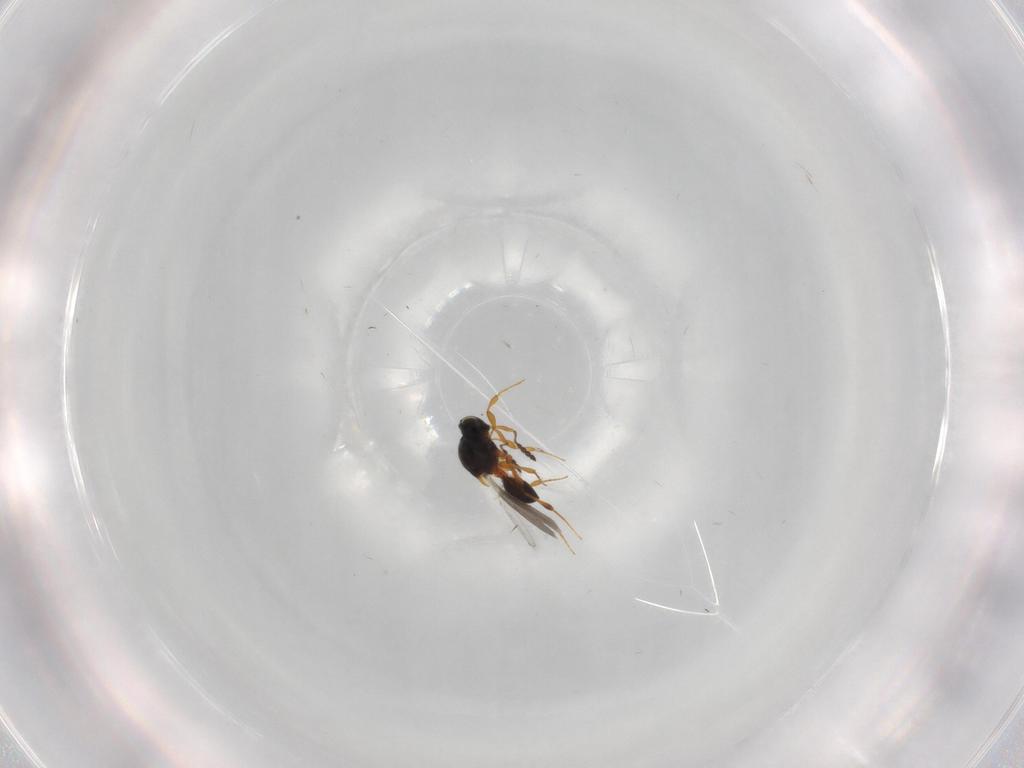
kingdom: Animalia
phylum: Arthropoda
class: Insecta
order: Hymenoptera
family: Platygastridae
